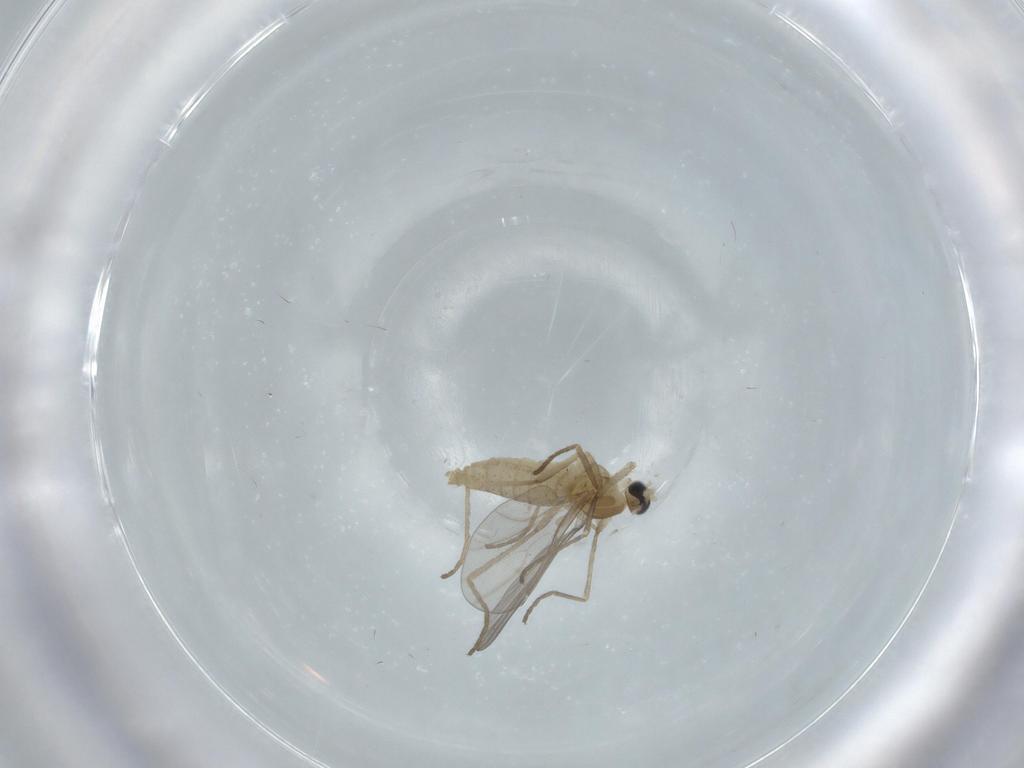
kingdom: Animalia
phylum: Arthropoda
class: Insecta
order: Diptera
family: Cecidomyiidae
